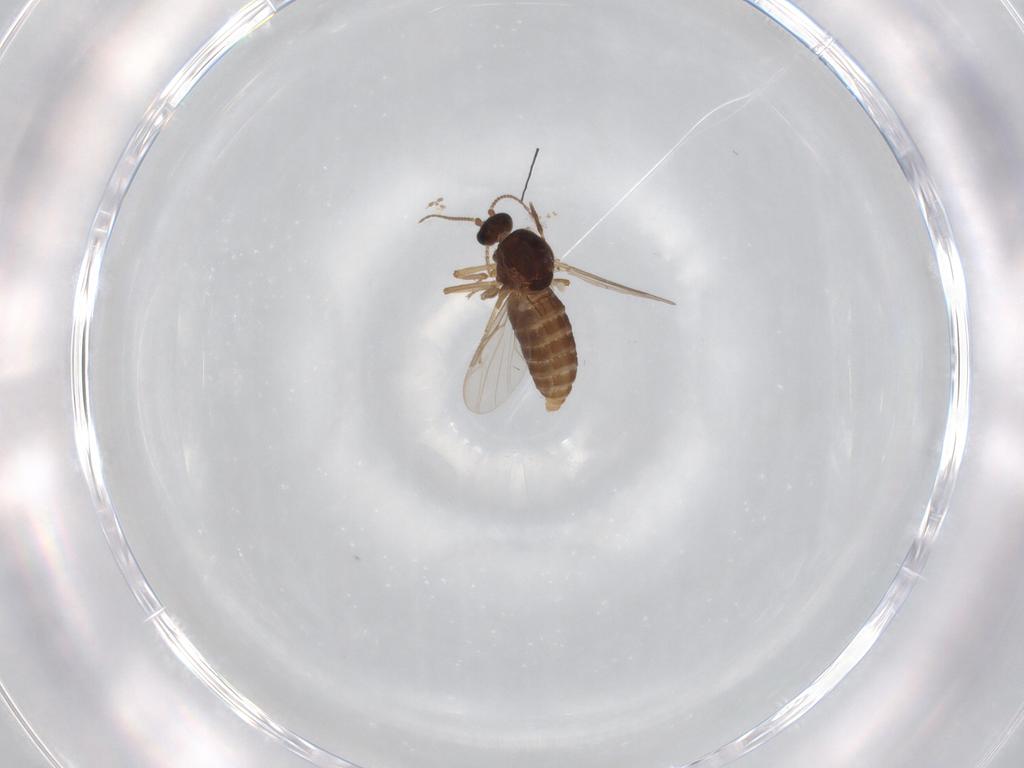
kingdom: Animalia
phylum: Arthropoda
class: Insecta
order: Diptera
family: Ceratopogonidae
